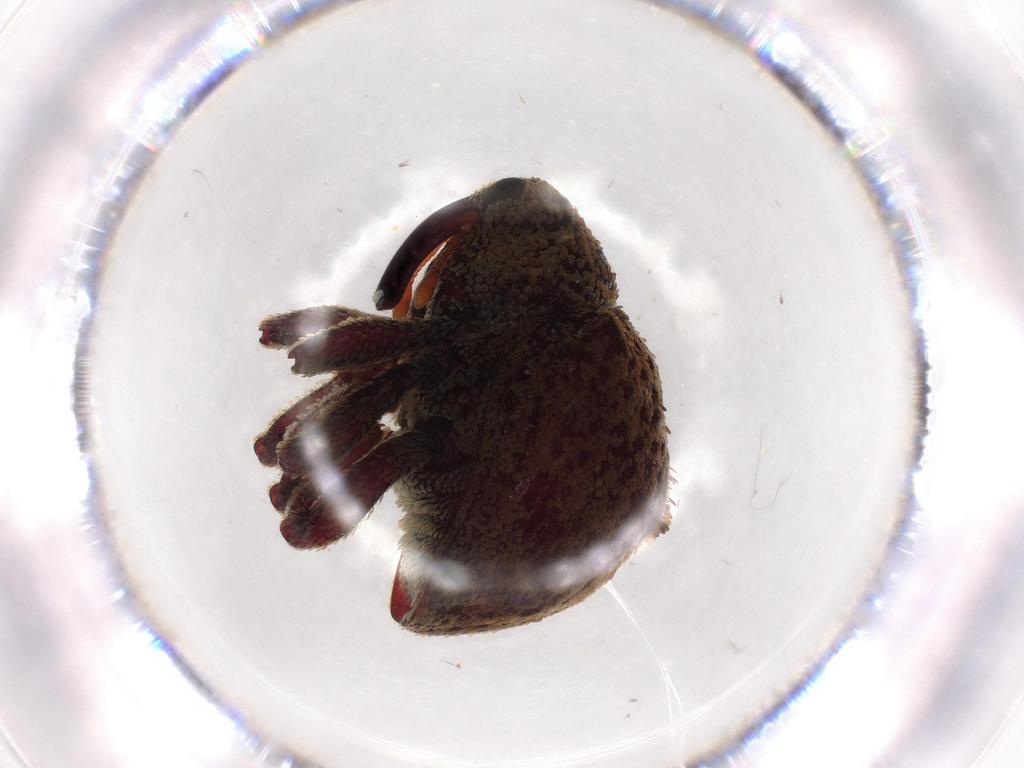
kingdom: Animalia
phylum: Arthropoda
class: Insecta
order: Coleoptera
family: Coccinellidae
